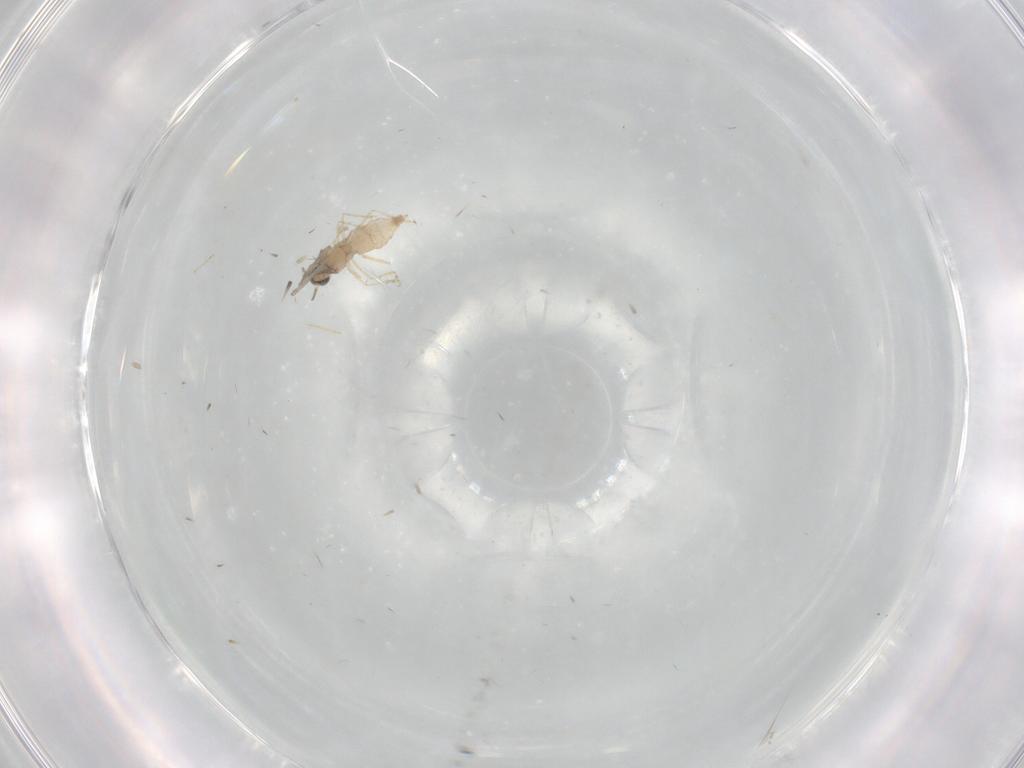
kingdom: Animalia
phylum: Arthropoda
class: Insecta
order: Diptera
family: Cecidomyiidae
